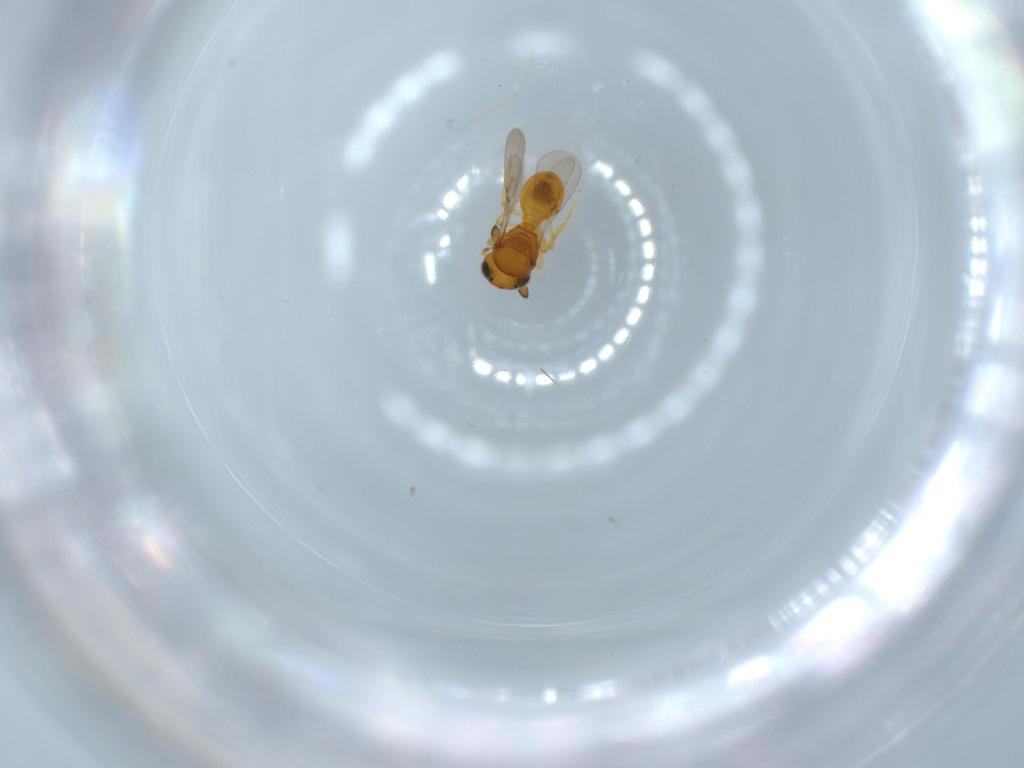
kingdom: Animalia
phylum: Arthropoda
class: Insecta
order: Hymenoptera
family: Scelionidae
